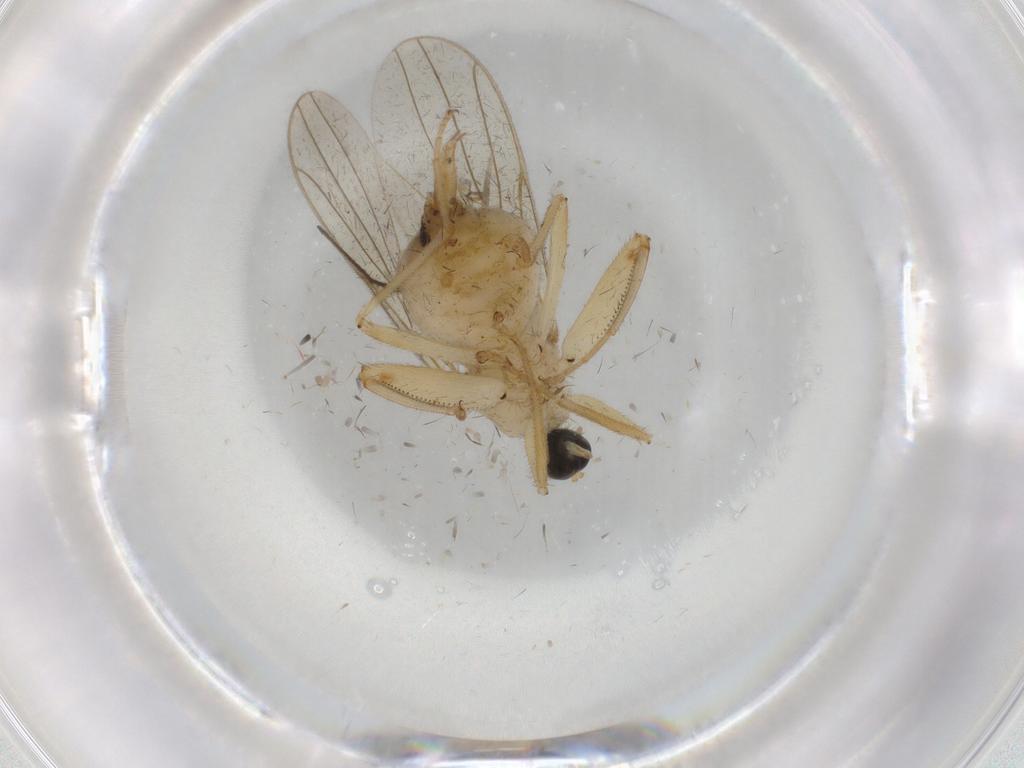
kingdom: Animalia
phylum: Arthropoda
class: Insecta
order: Diptera
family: Hybotidae
